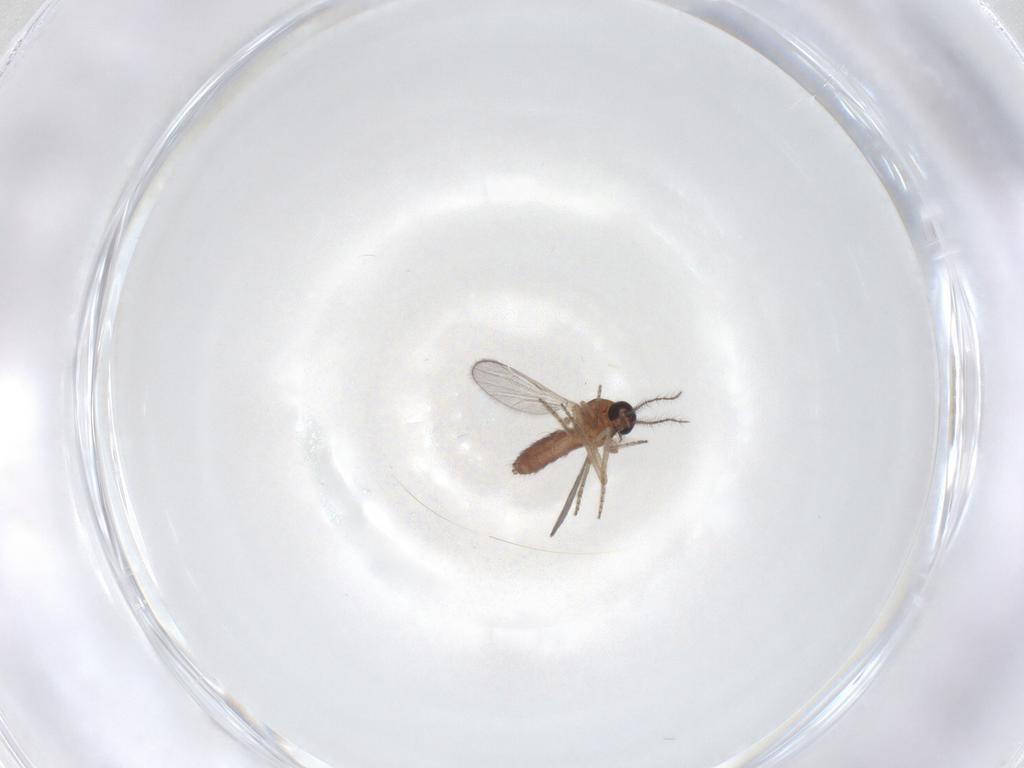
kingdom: Animalia
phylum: Arthropoda
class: Insecta
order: Diptera
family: Ceratopogonidae
